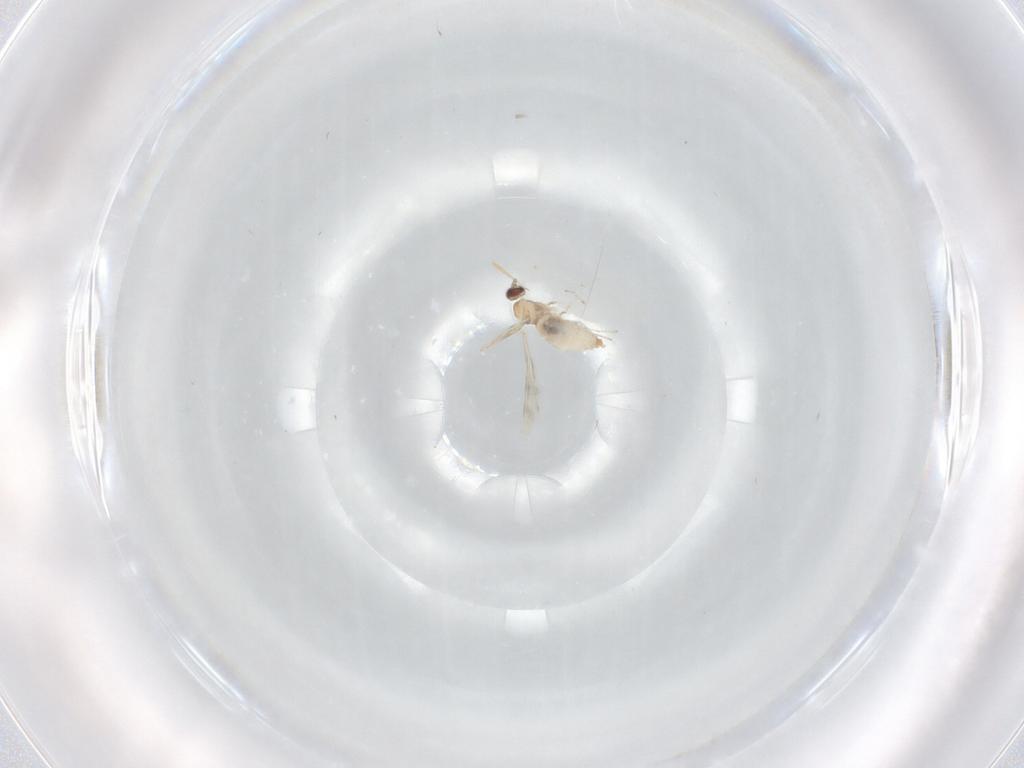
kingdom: Animalia
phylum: Arthropoda
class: Insecta
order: Diptera
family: Cecidomyiidae
